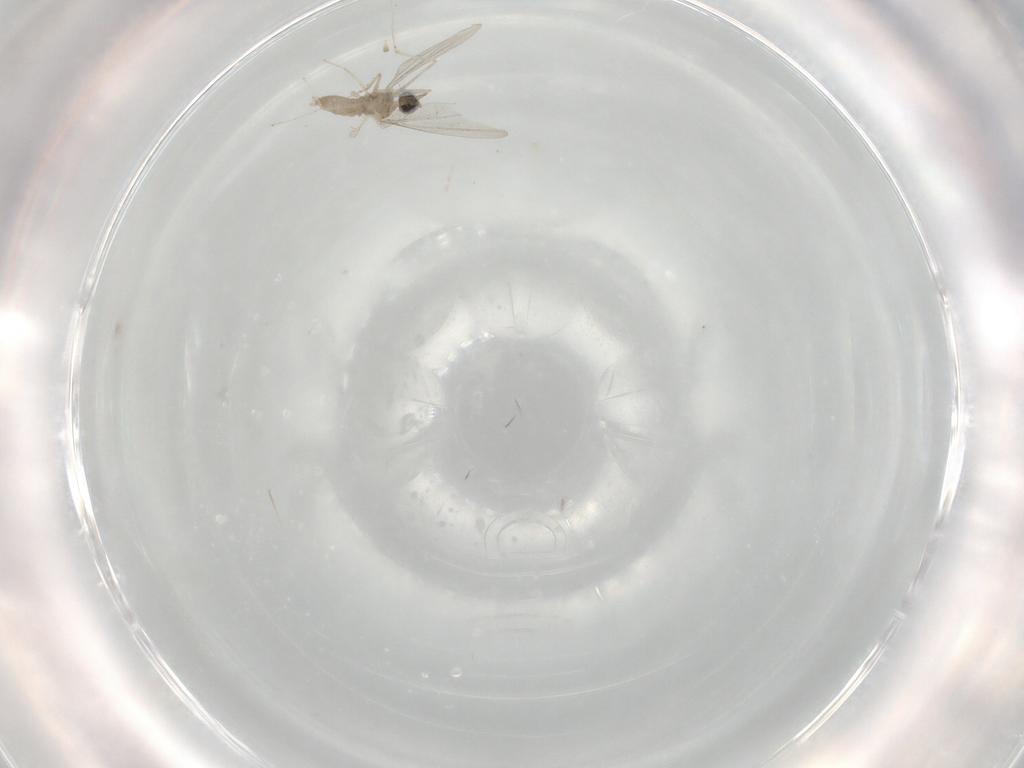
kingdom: Animalia
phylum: Arthropoda
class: Insecta
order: Diptera
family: Cecidomyiidae
